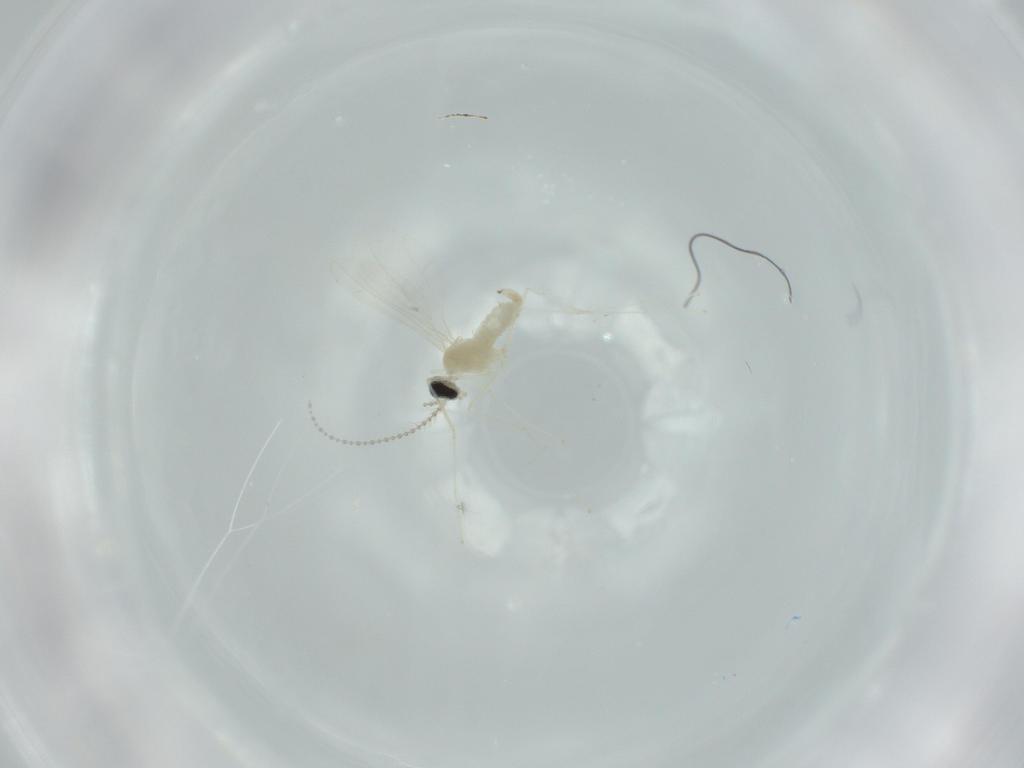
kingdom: Animalia
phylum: Arthropoda
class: Insecta
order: Diptera
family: Cecidomyiidae
